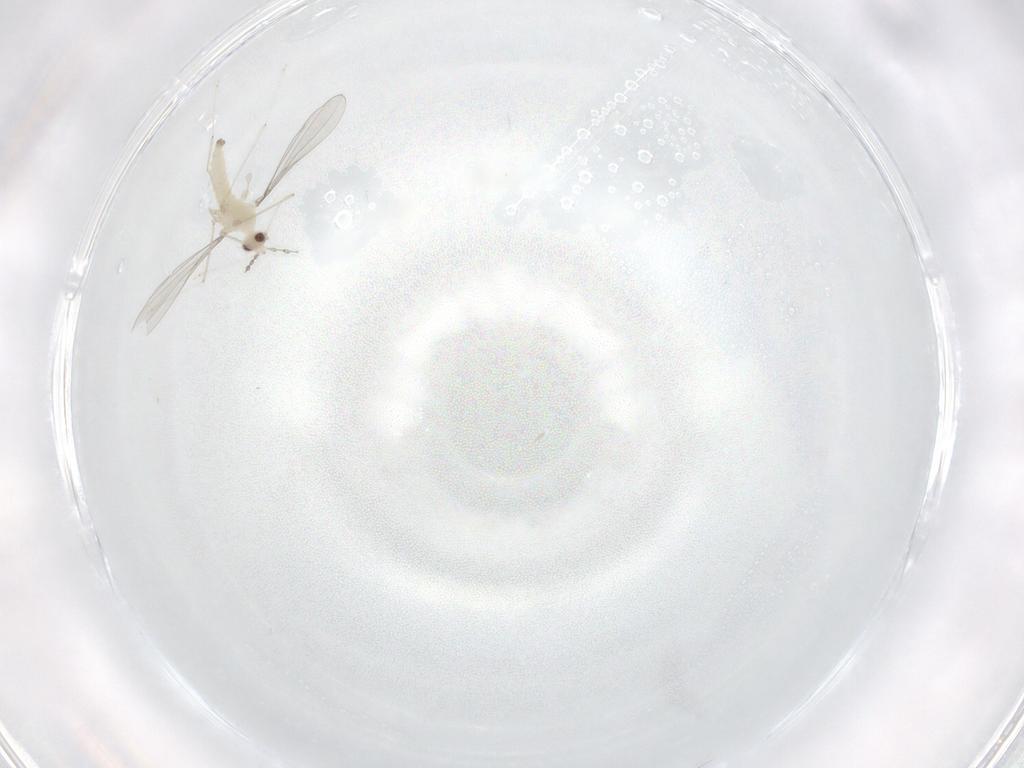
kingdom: Animalia
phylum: Arthropoda
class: Insecta
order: Diptera
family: Cecidomyiidae
